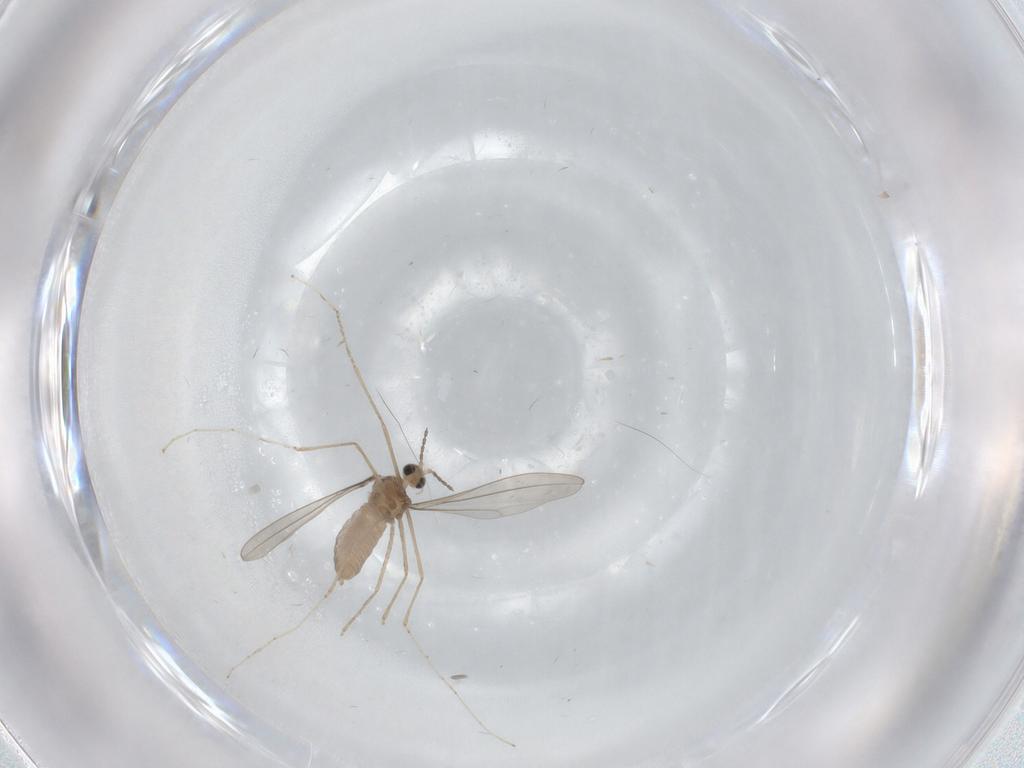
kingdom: Animalia
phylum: Arthropoda
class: Insecta
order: Diptera
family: Cecidomyiidae
